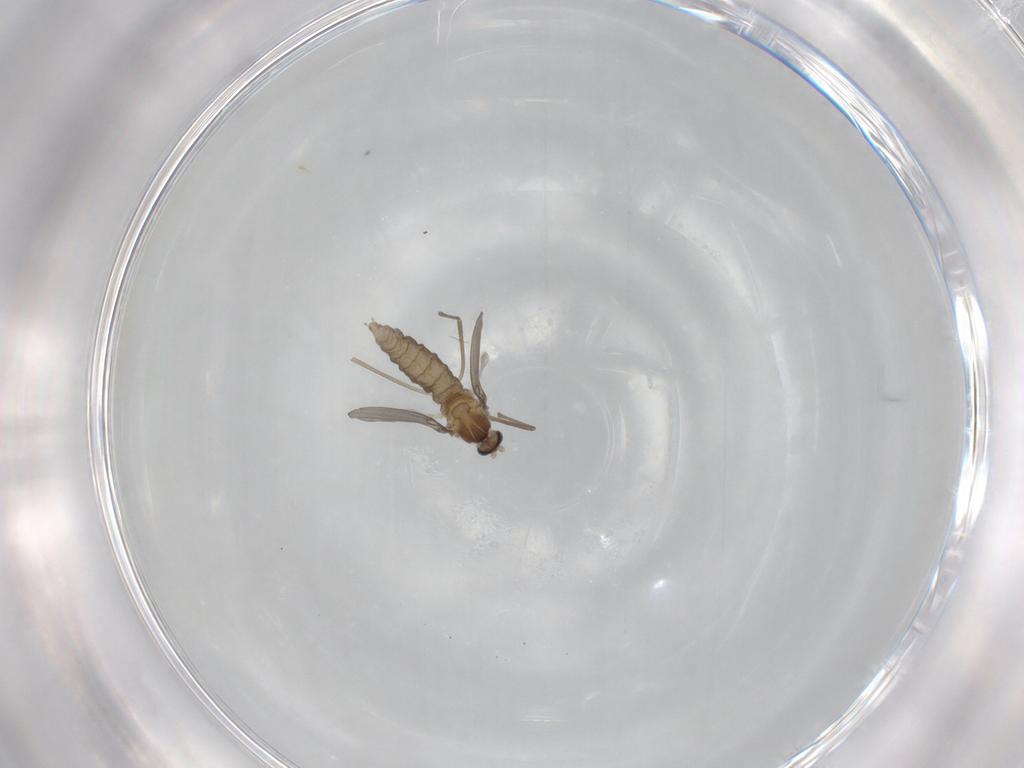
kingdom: Animalia
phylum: Arthropoda
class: Insecta
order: Diptera
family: Cecidomyiidae
